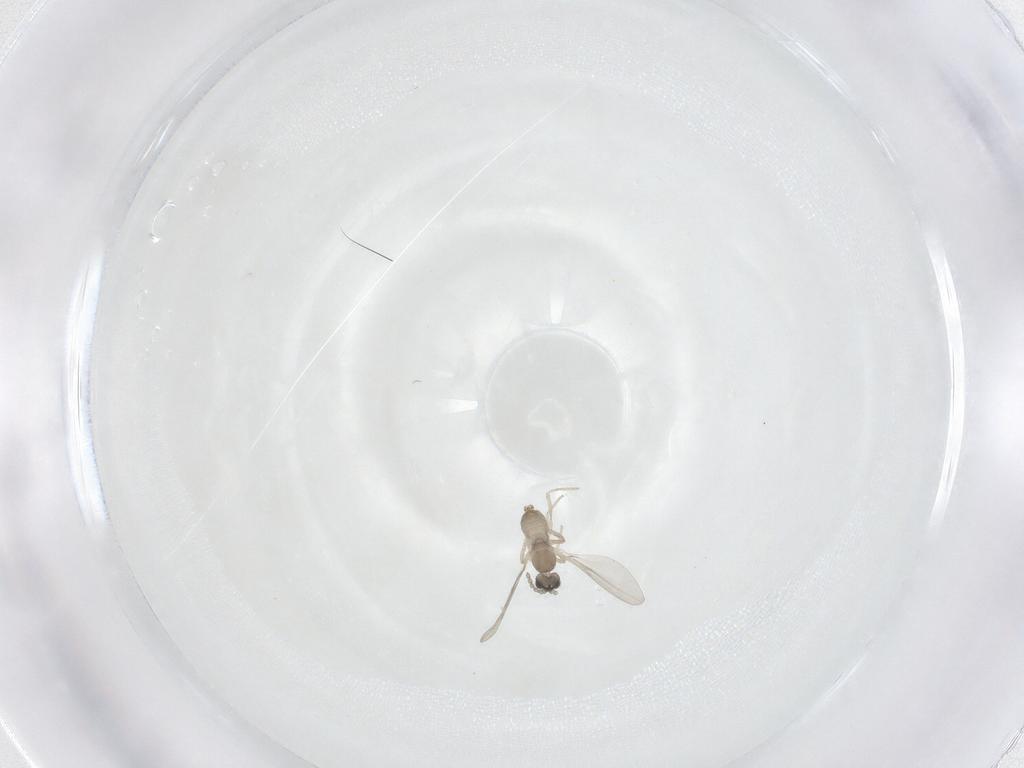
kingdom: Animalia
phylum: Arthropoda
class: Insecta
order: Diptera
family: Cecidomyiidae
